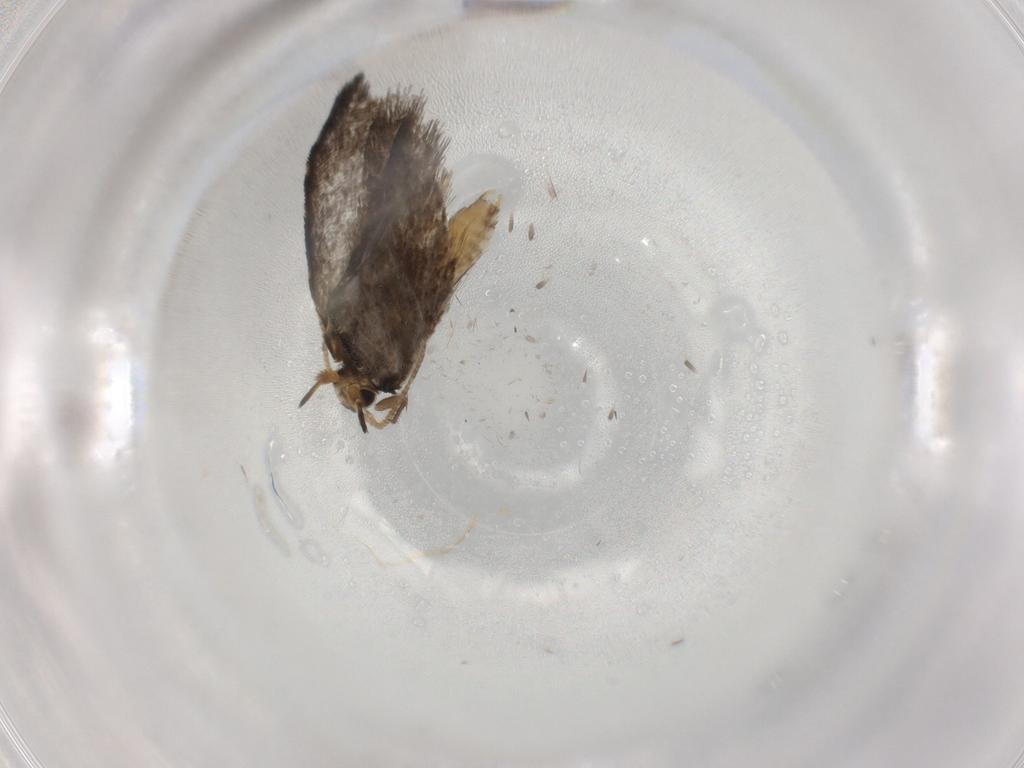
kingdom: Animalia
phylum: Arthropoda
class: Insecta
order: Lepidoptera
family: Psychidae
